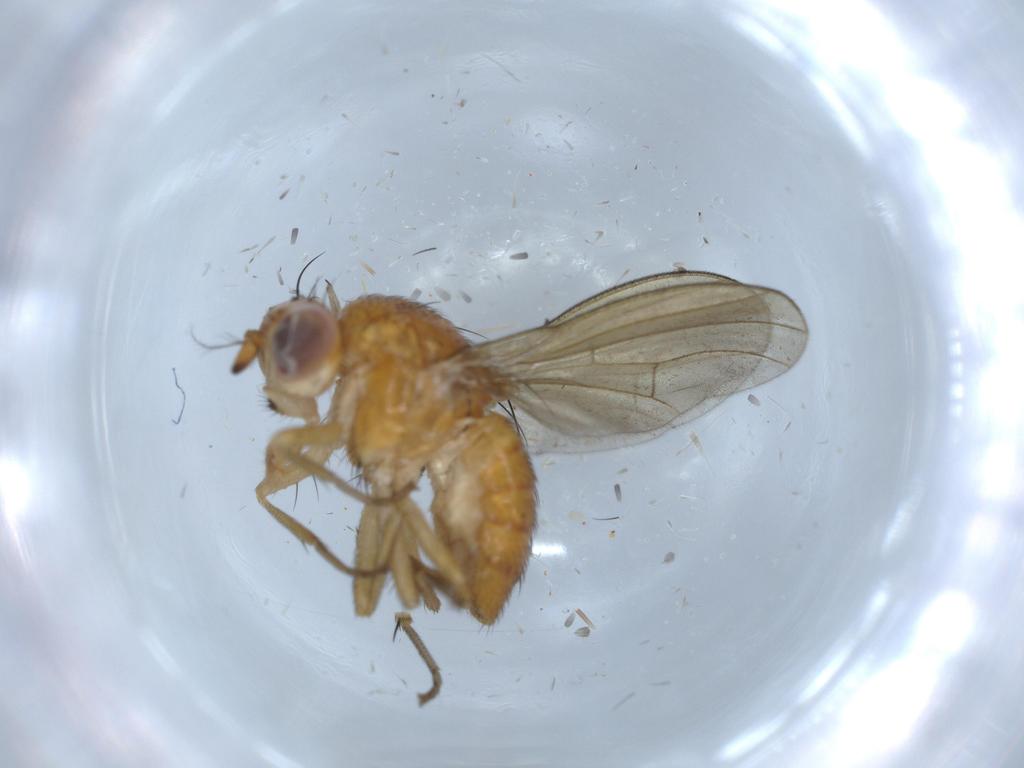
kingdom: Animalia
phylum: Arthropoda
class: Insecta
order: Diptera
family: Lauxaniidae
